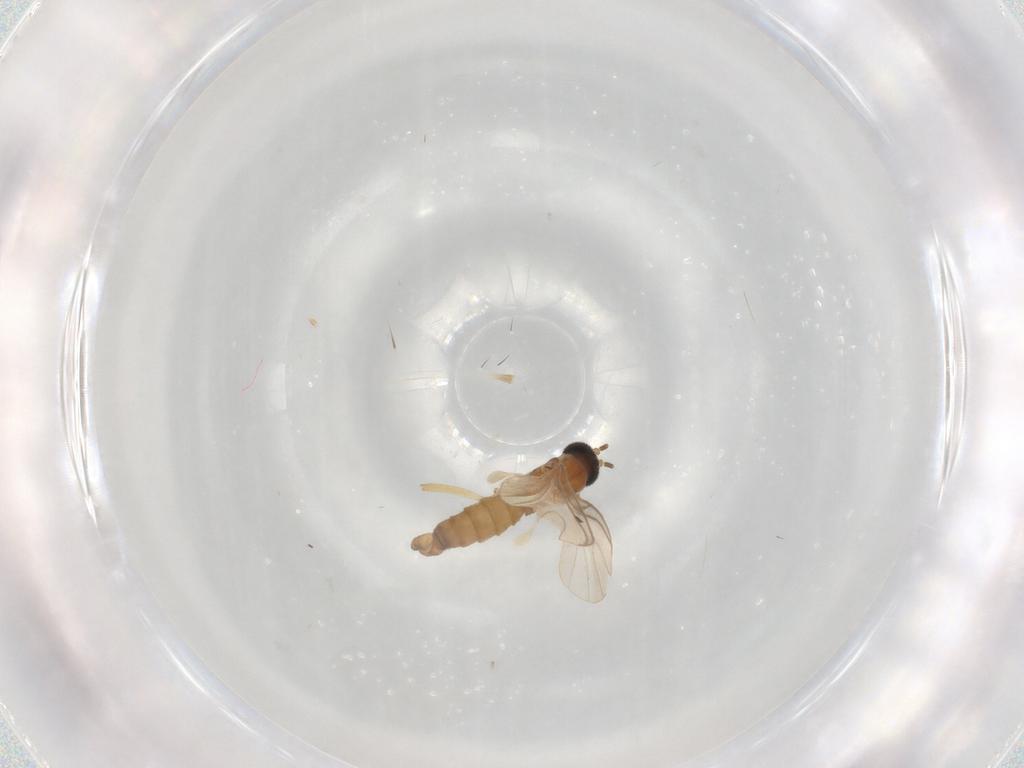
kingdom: Animalia
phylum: Arthropoda
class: Insecta
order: Diptera
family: Sciaridae
